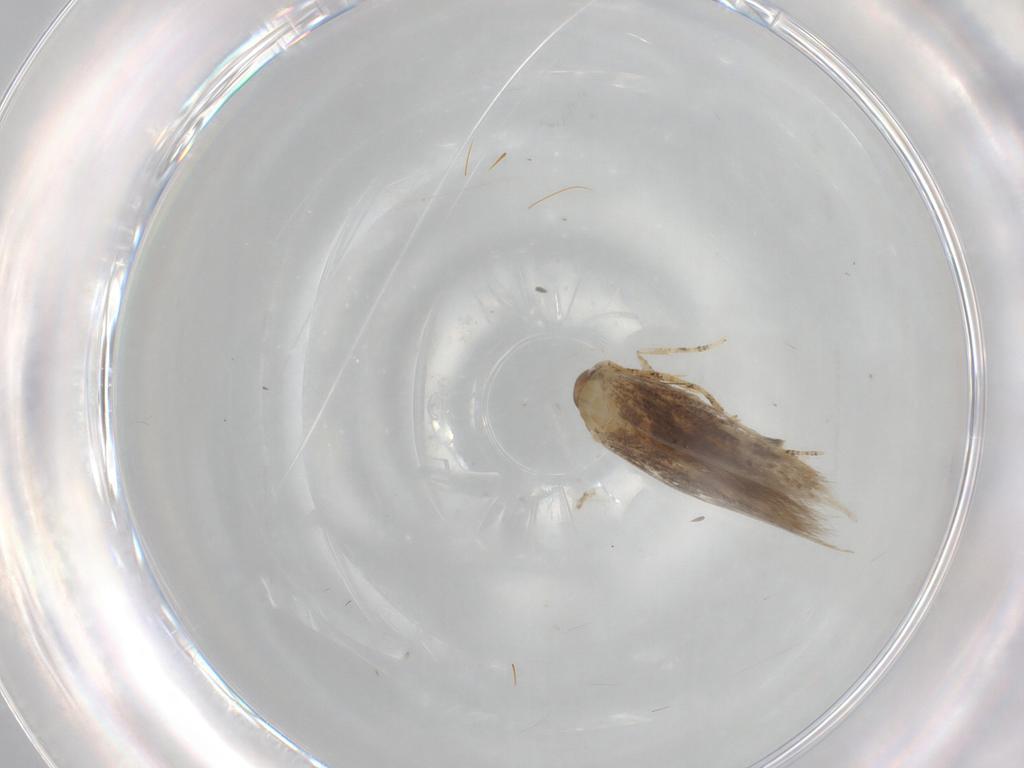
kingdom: Animalia
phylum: Arthropoda
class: Insecta
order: Lepidoptera
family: Cosmopterigidae
